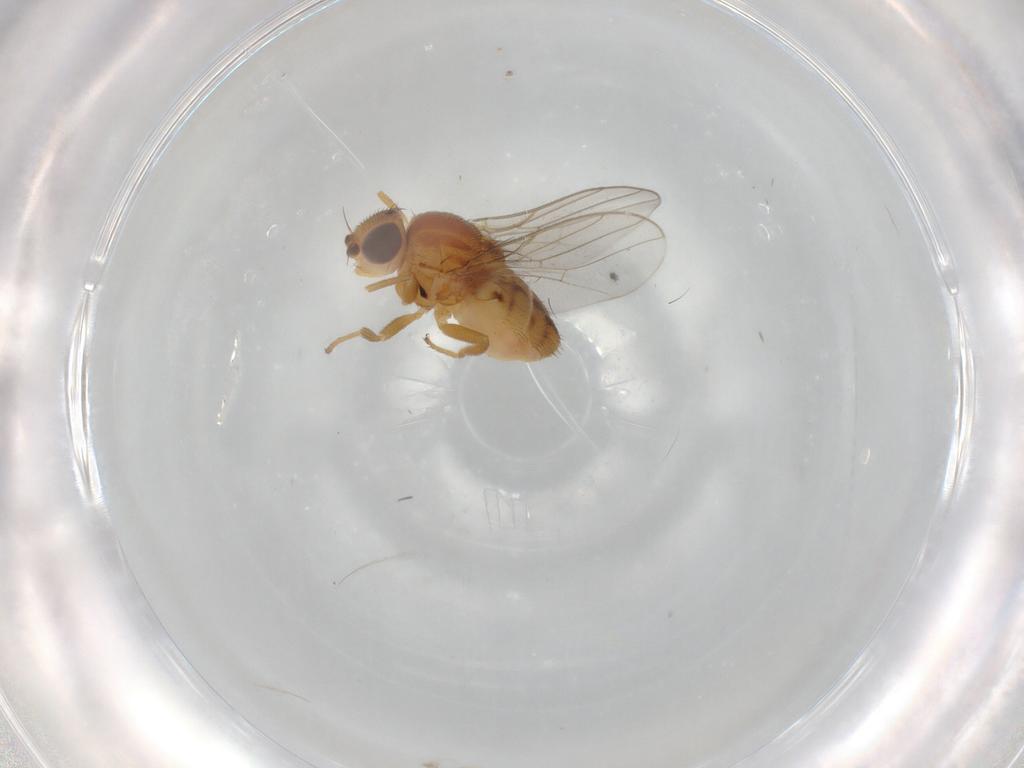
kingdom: Animalia
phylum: Arthropoda
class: Insecta
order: Diptera
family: Chloropidae
